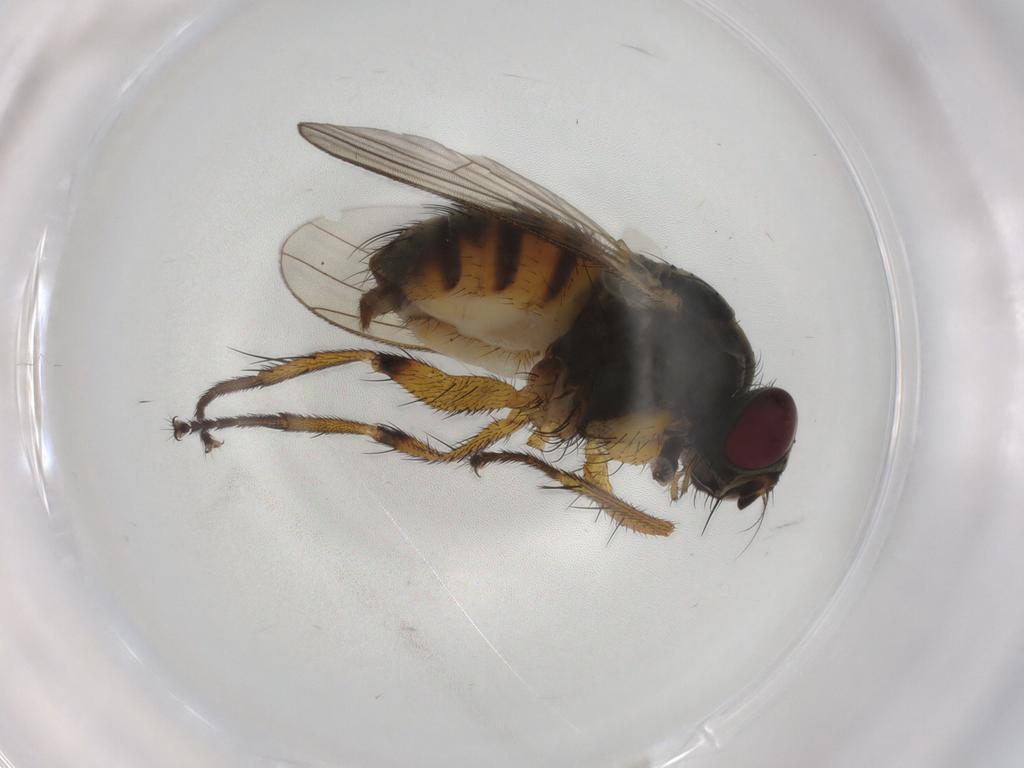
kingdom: Animalia
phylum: Arthropoda
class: Insecta
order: Diptera
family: Muscidae
